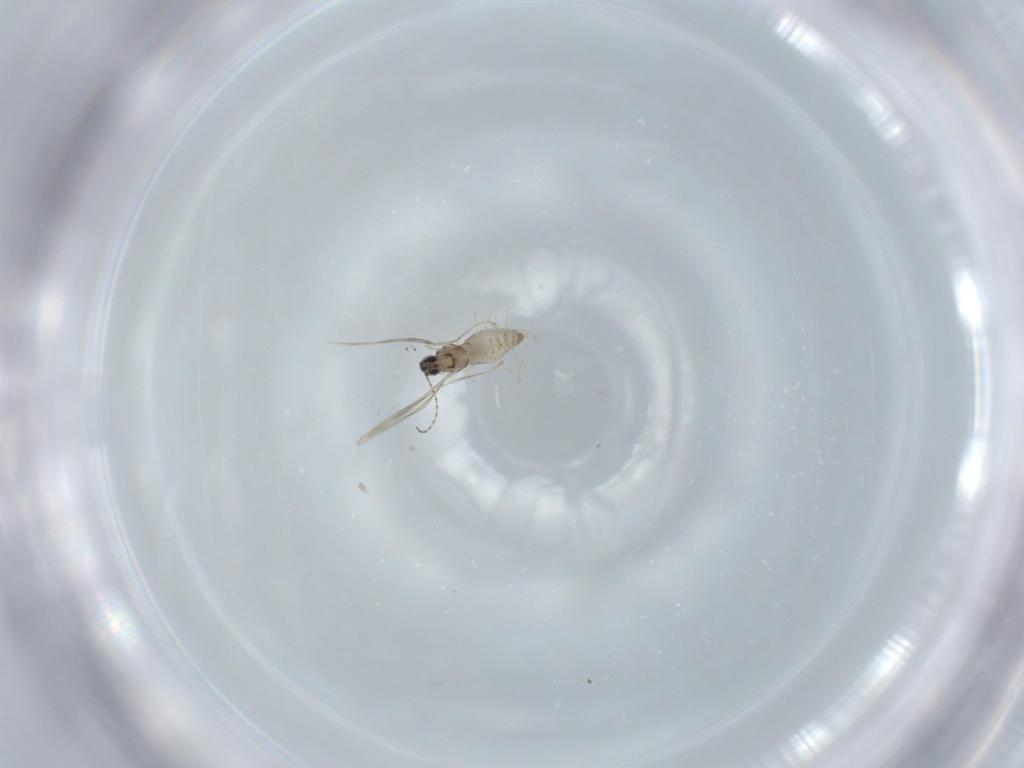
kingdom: Animalia
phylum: Arthropoda
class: Insecta
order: Diptera
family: Cecidomyiidae
